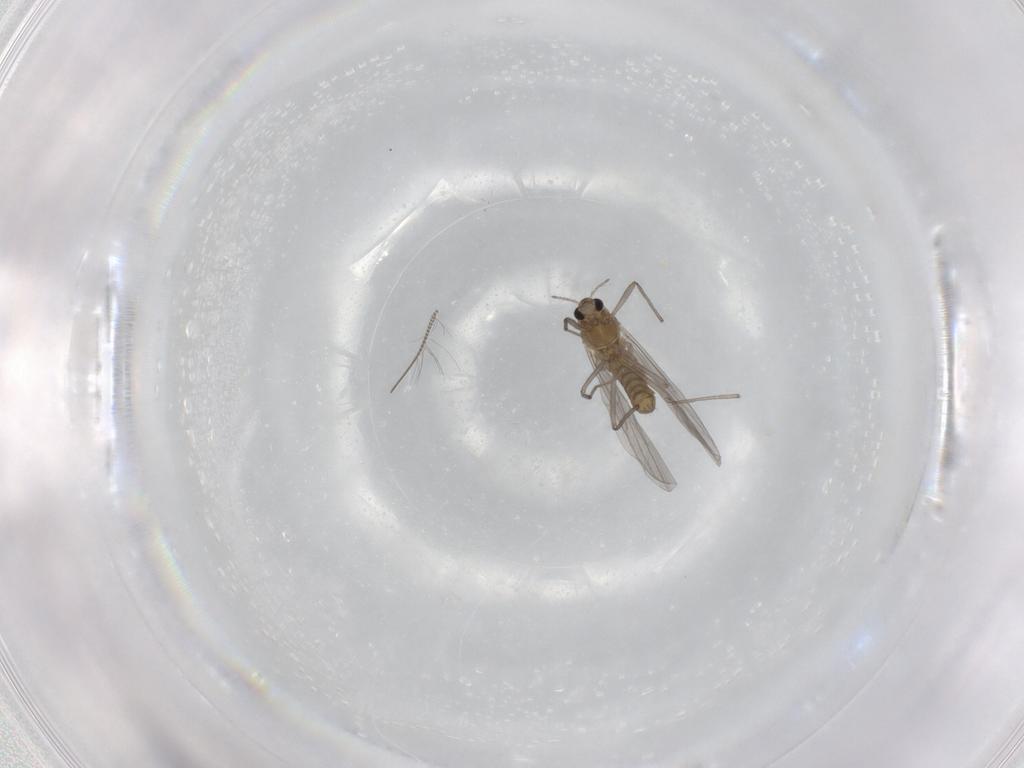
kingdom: Animalia
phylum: Arthropoda
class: Insecta
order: Diptera
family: Chironomidae
